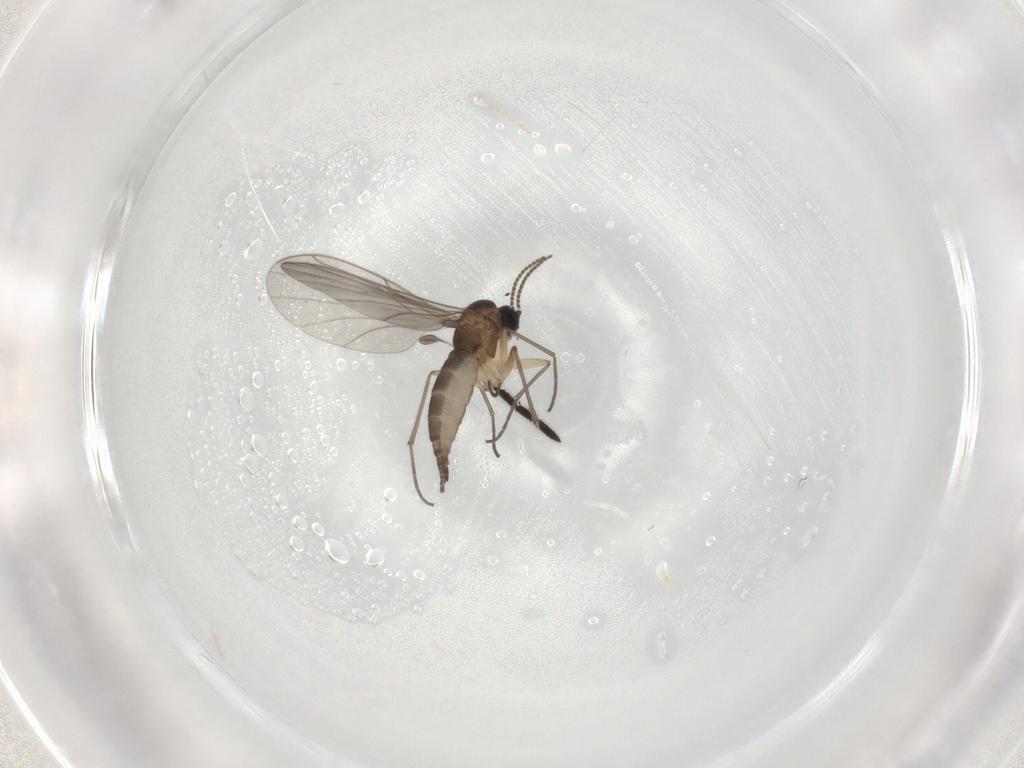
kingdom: Animalia
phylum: Arthropoda
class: Insecta
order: Diptera
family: Sciaridae
